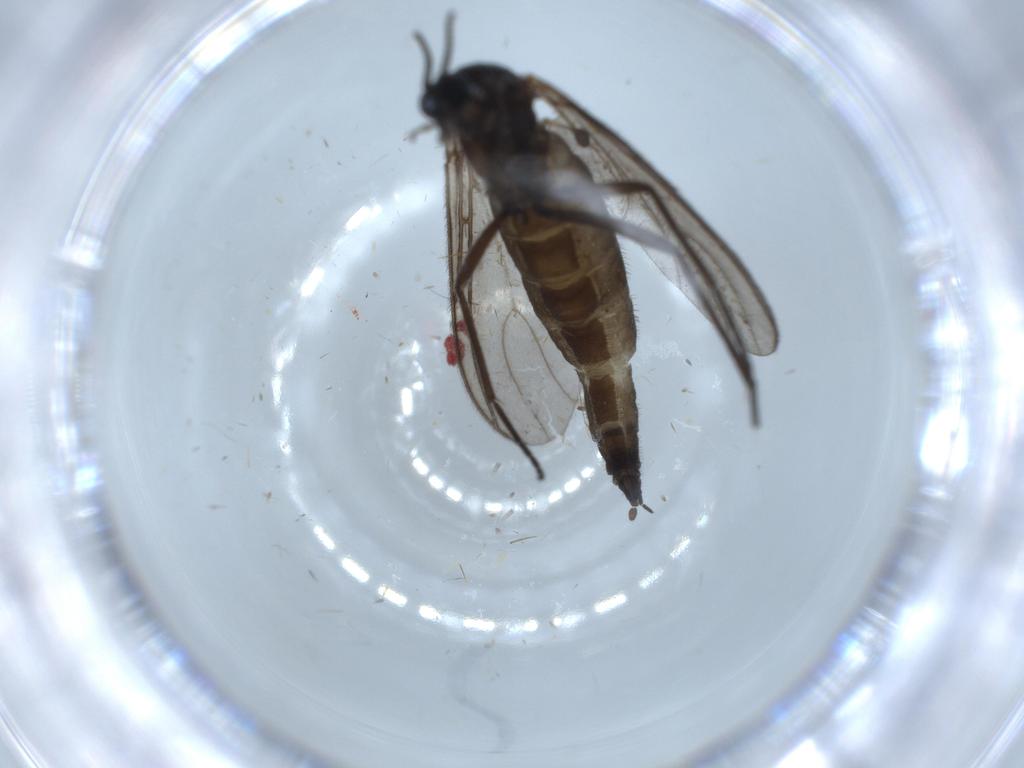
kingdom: Animalia
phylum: Arthropoda
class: Insecta
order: Diptera
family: Sciaridae
